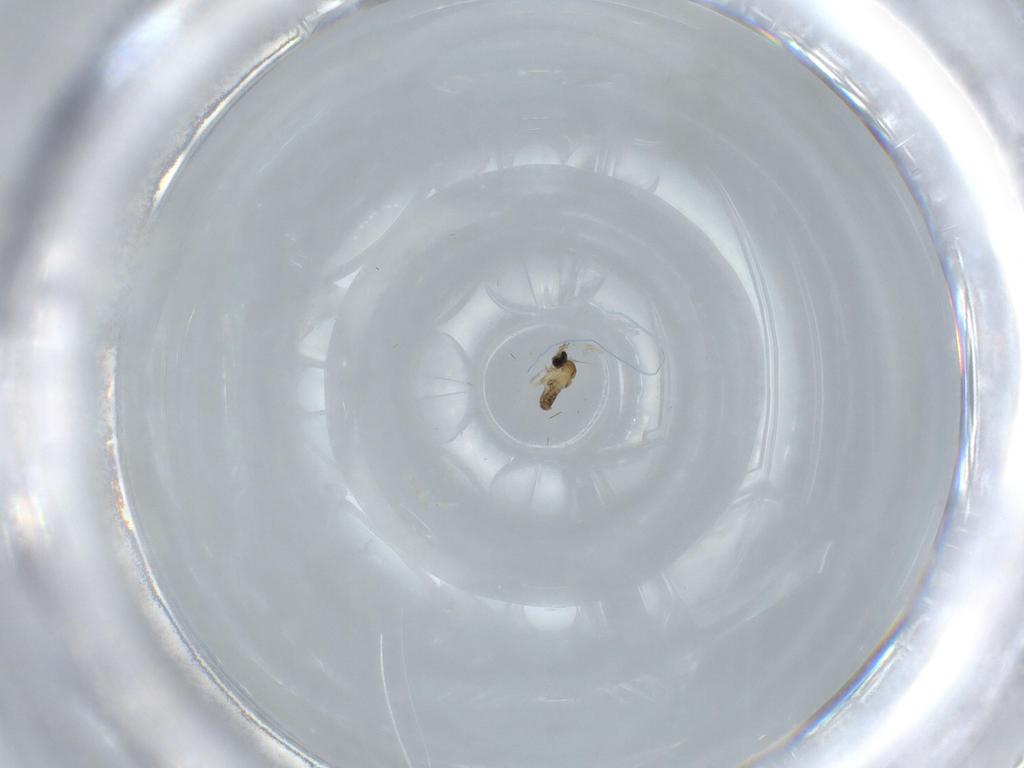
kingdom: Animalia
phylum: Arthropoda
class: Insecta
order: Diptera
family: Cecidomyiidae
